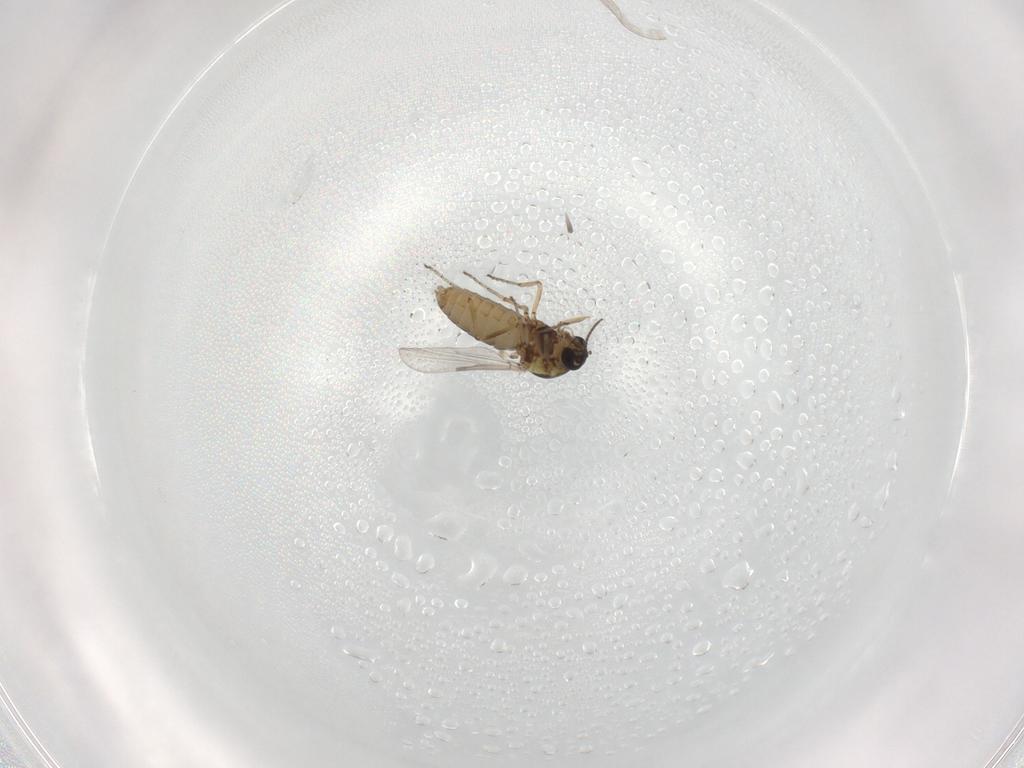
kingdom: Animalia
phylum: Arthropoda
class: Insecta
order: Diptera
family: Ceratopogonidae
